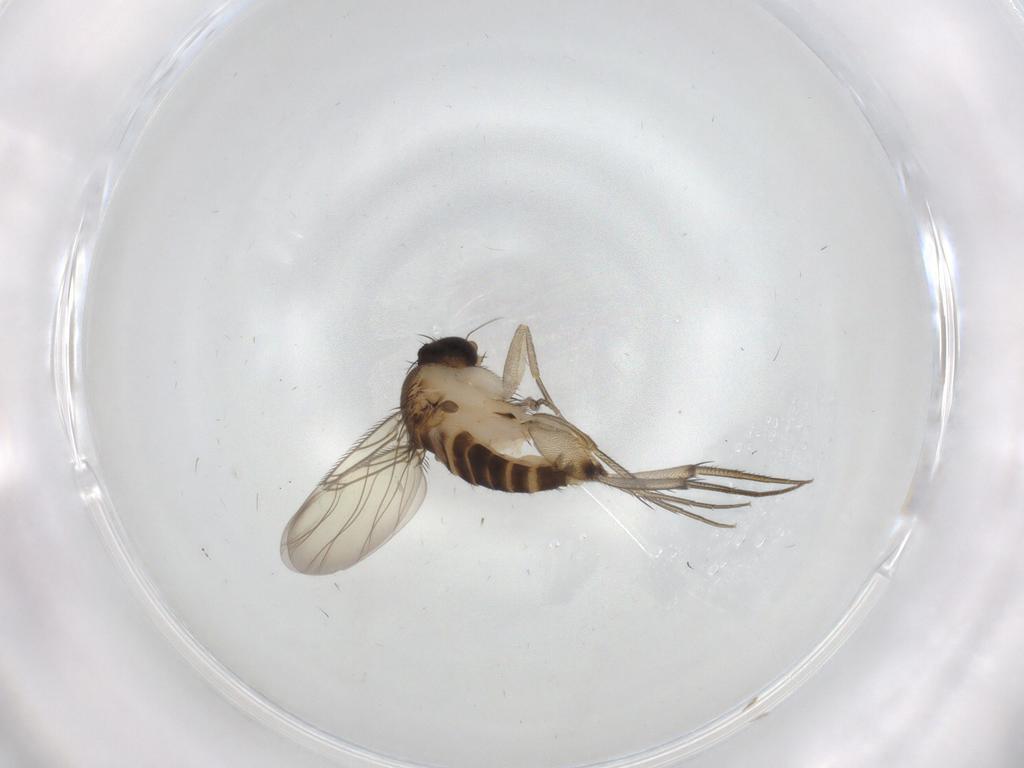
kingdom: Animalia
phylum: Arthropoda
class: Insecta
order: Diptera
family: Phoridae
